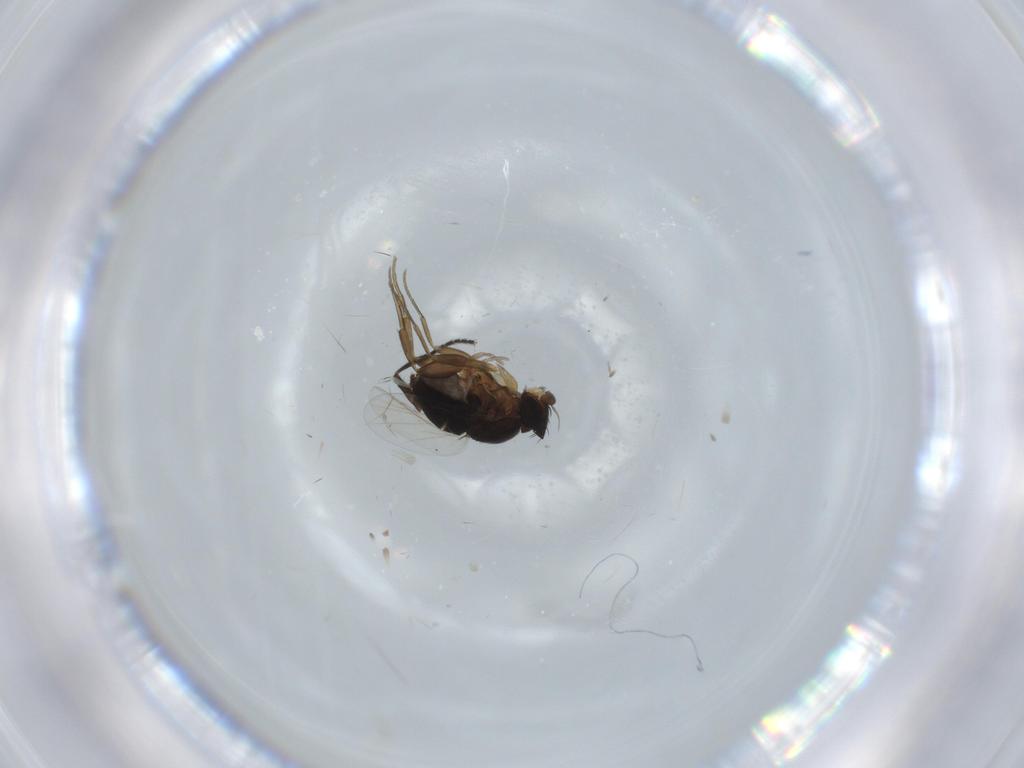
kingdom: Animalia
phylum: Arthropoda
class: Insecta
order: Diptera
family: Phoridae
